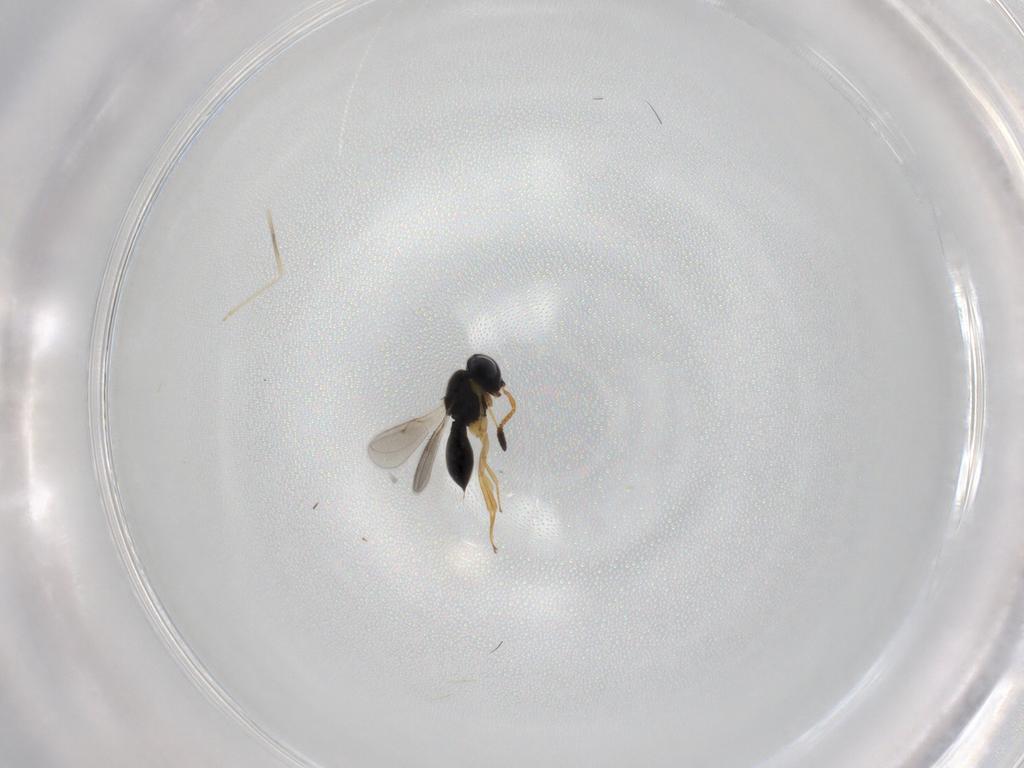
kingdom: Animalia
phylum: Arthropoda
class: Insecta
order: Hymenoptera
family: Scelionidae
